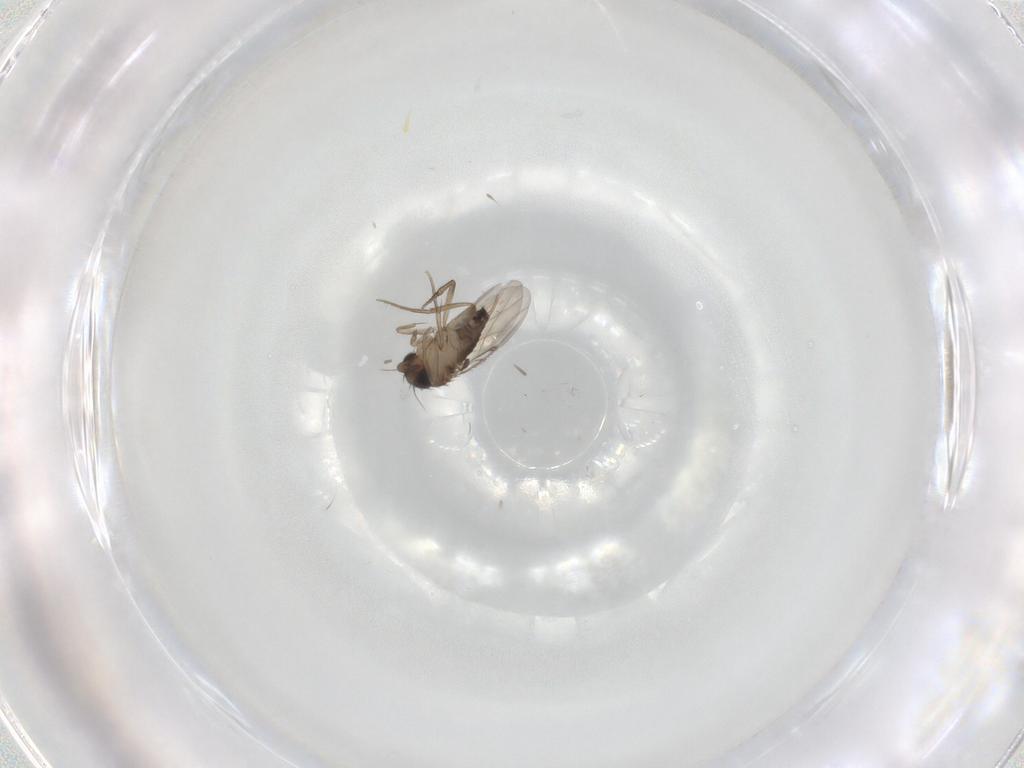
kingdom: Animalia
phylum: Arthropoda
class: Insecta
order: Diptera
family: Phoridae
